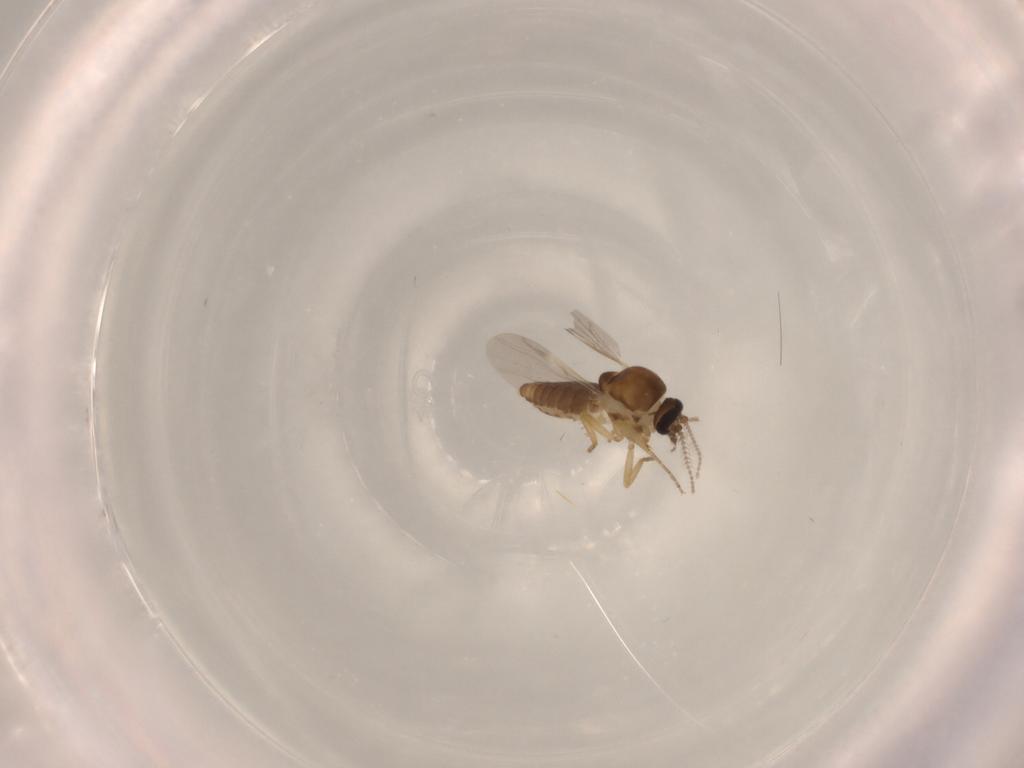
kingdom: Animalia
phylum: Arthropoda
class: Insecta
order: Diptera
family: Ceratopogonidae
